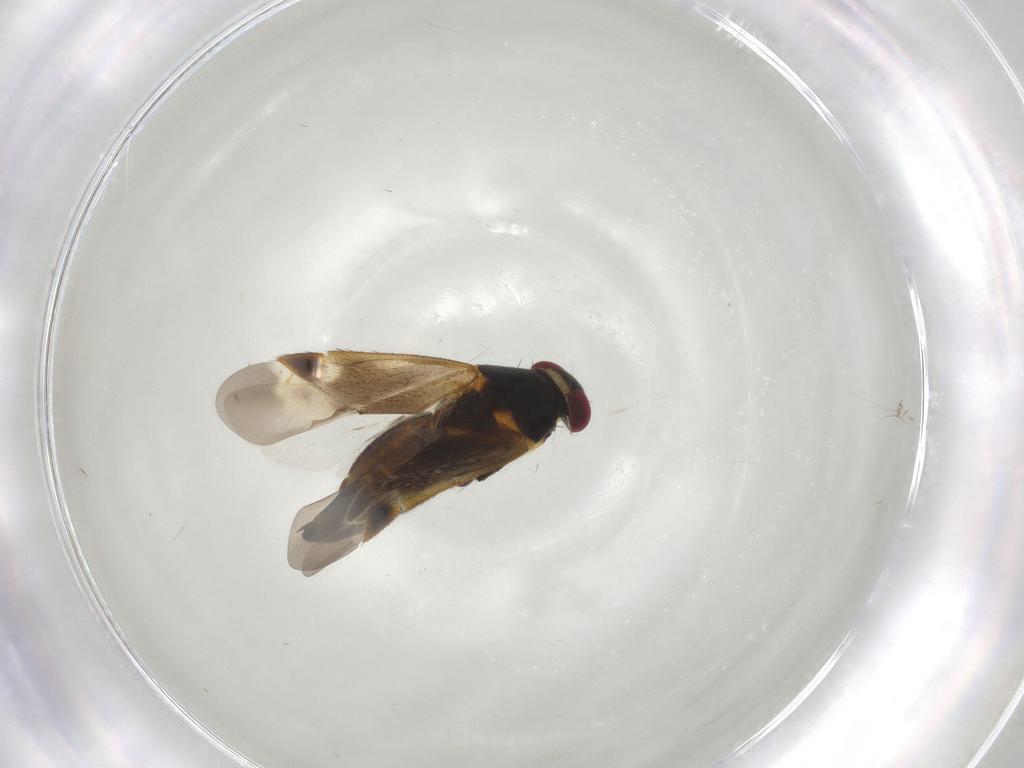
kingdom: Animalia
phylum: Arthropoda
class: Insecta
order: Hemiptera
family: Miridae
